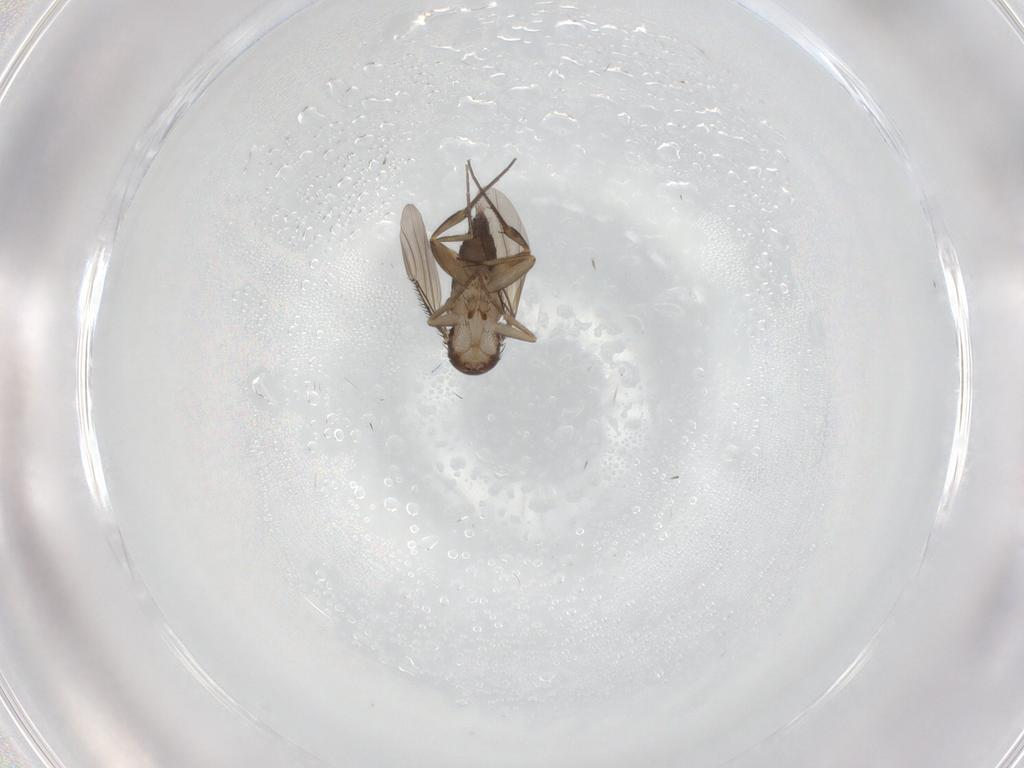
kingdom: Animalia
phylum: Arthropoda
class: Insecta
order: Diptera
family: Phoridae
